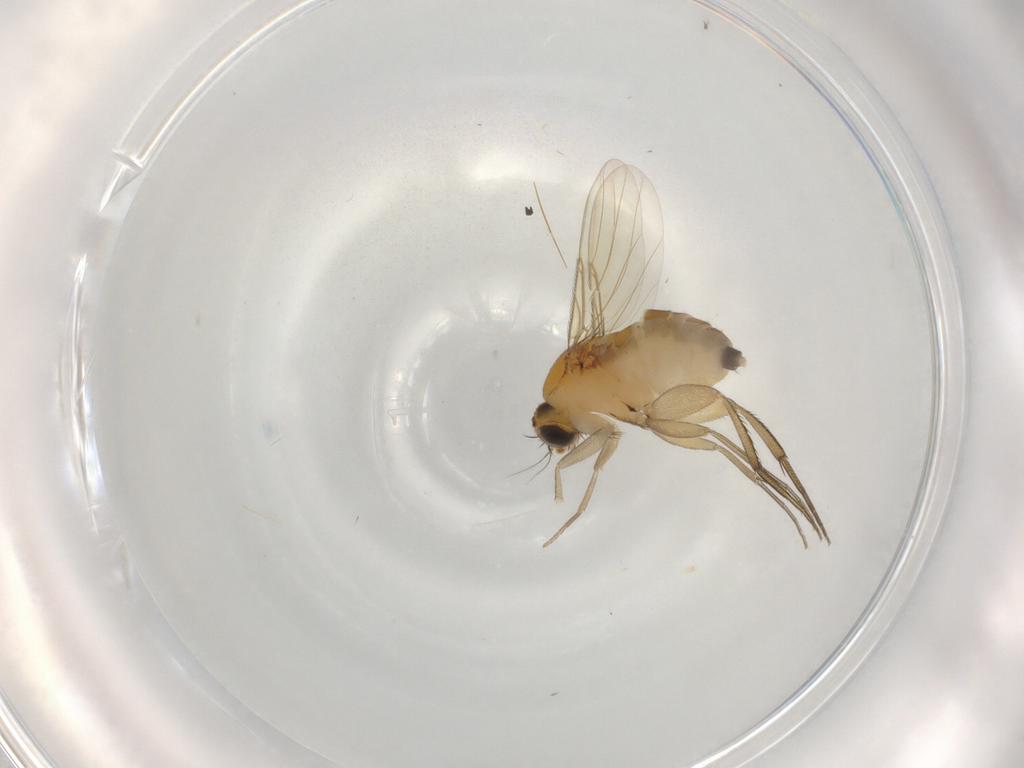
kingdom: Animalia
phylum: Arthropoda
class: Insecta
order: Diptera
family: Phoridae
